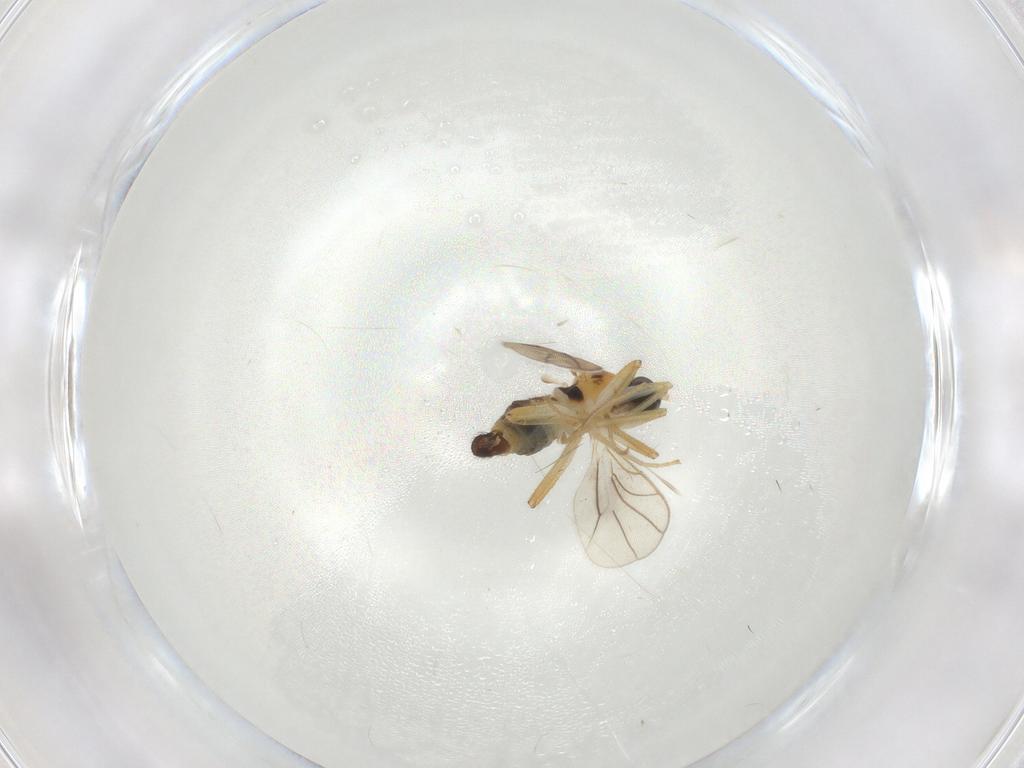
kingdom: Animalia
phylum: Arthropoda
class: Insecta
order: Diptera
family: Hybotidae
